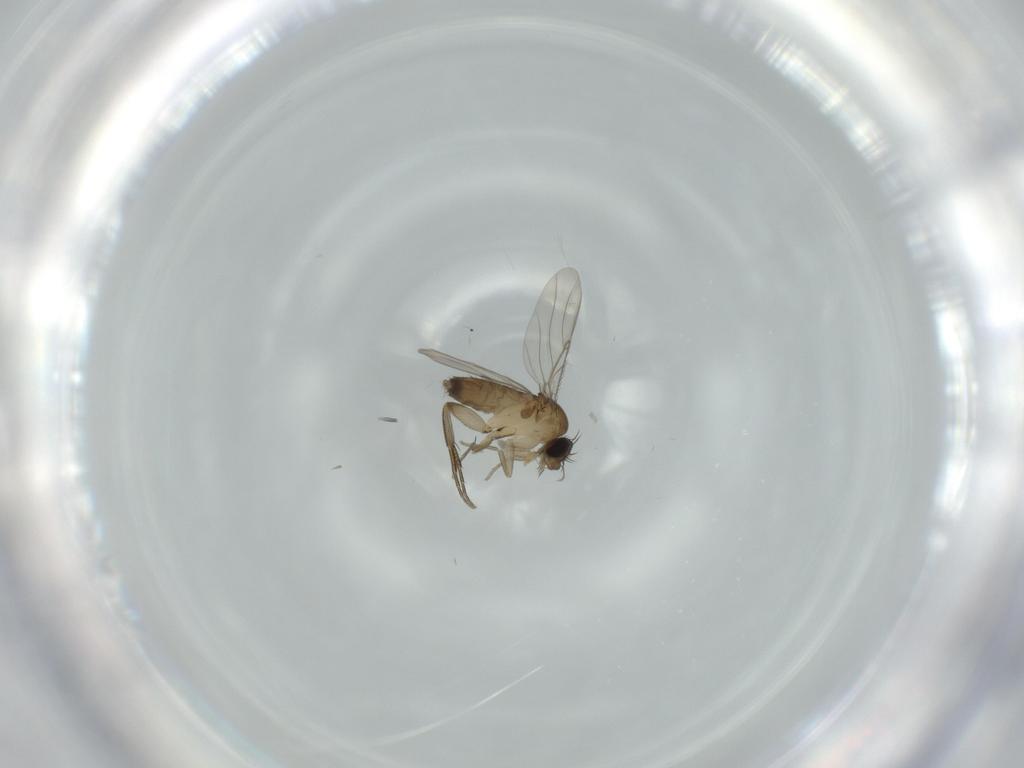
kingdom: Animalia
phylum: Arthropoda
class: Insecta
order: Diptera
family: Phoridae
